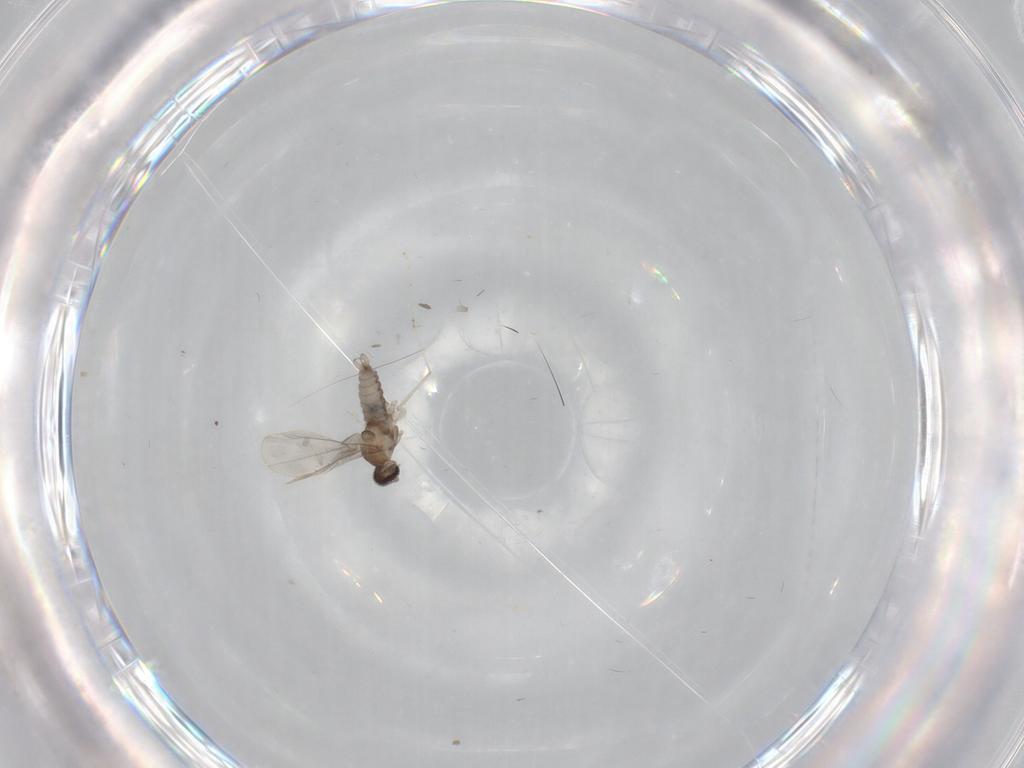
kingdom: Animalia
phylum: Arthropoda
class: Insecta
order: Diptera
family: Cecidomyiidae
